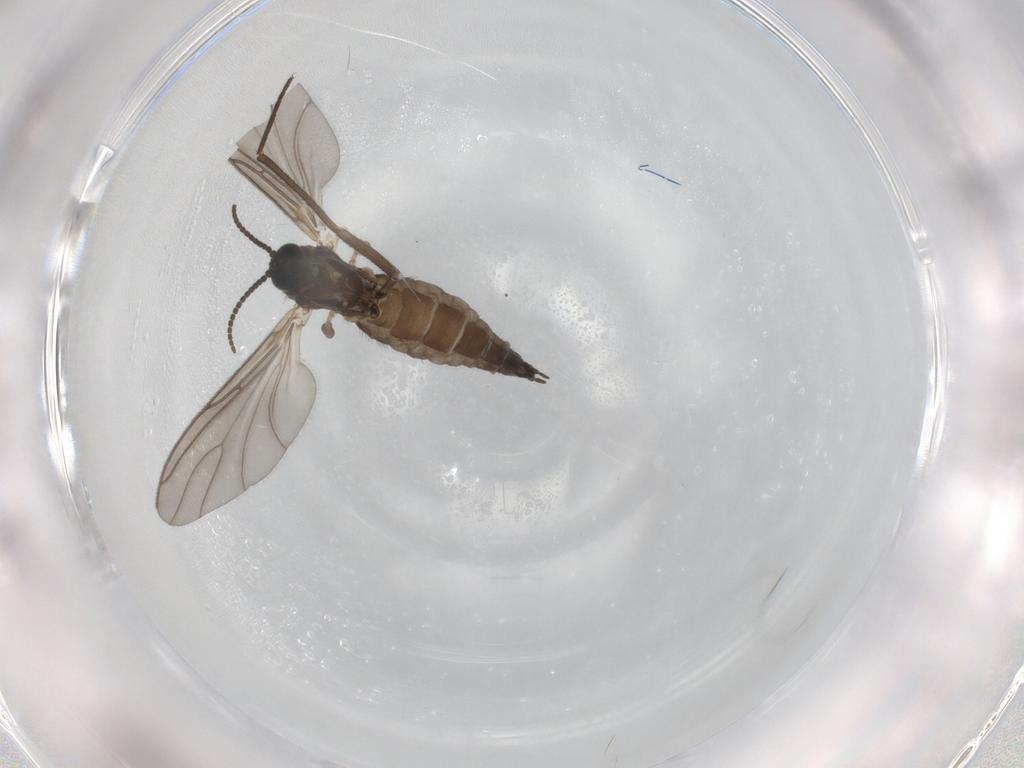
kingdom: Animalia
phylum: Arthropoda
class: Insecta
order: Diptera
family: Sciaridae
